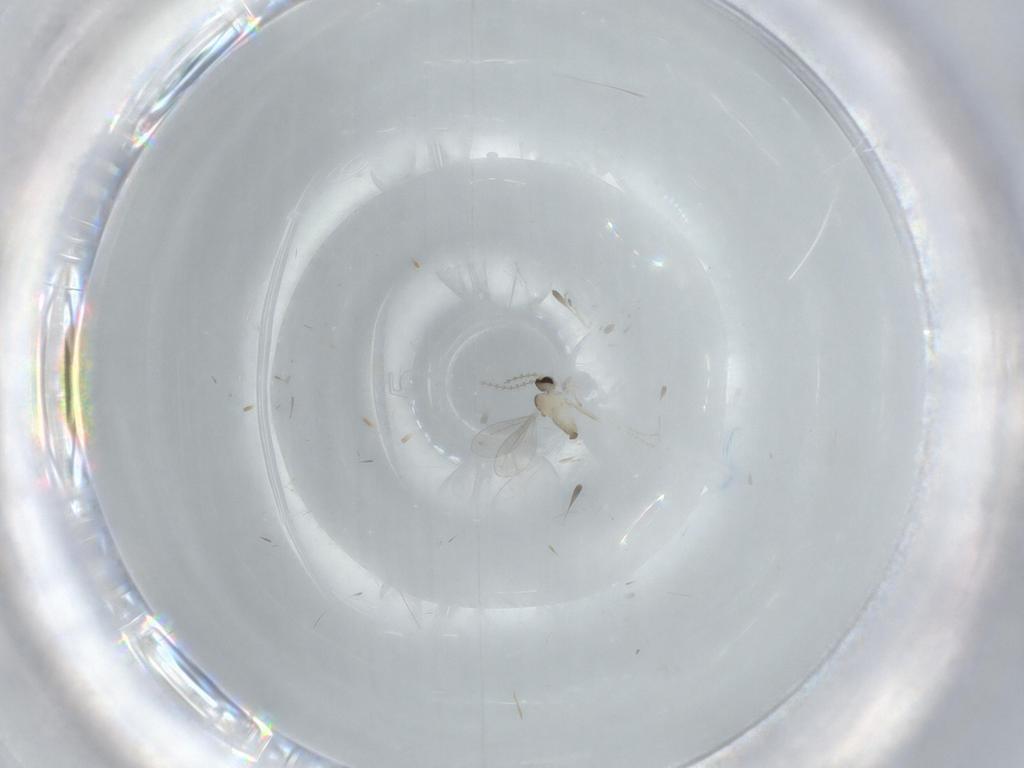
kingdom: Animalia
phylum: Arthropoda
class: Insecta
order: Diptera
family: Cecidomyiidae
